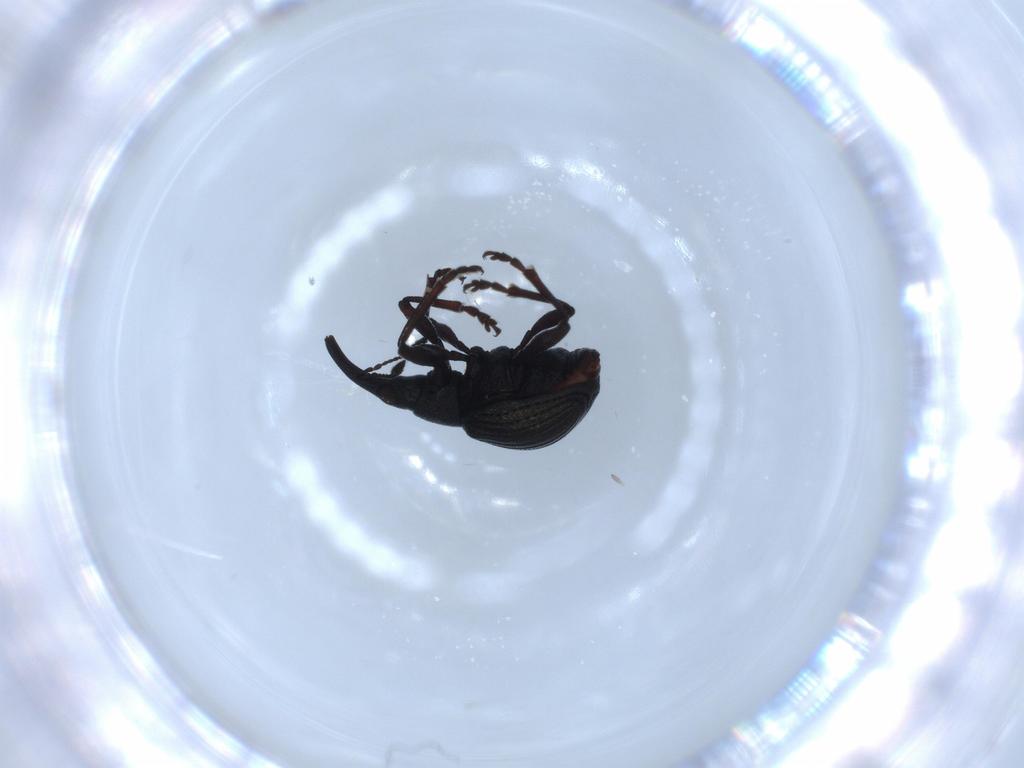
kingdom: Animalia
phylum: Arthropoda
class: Insecta
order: Coleoptera
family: Brentidae
